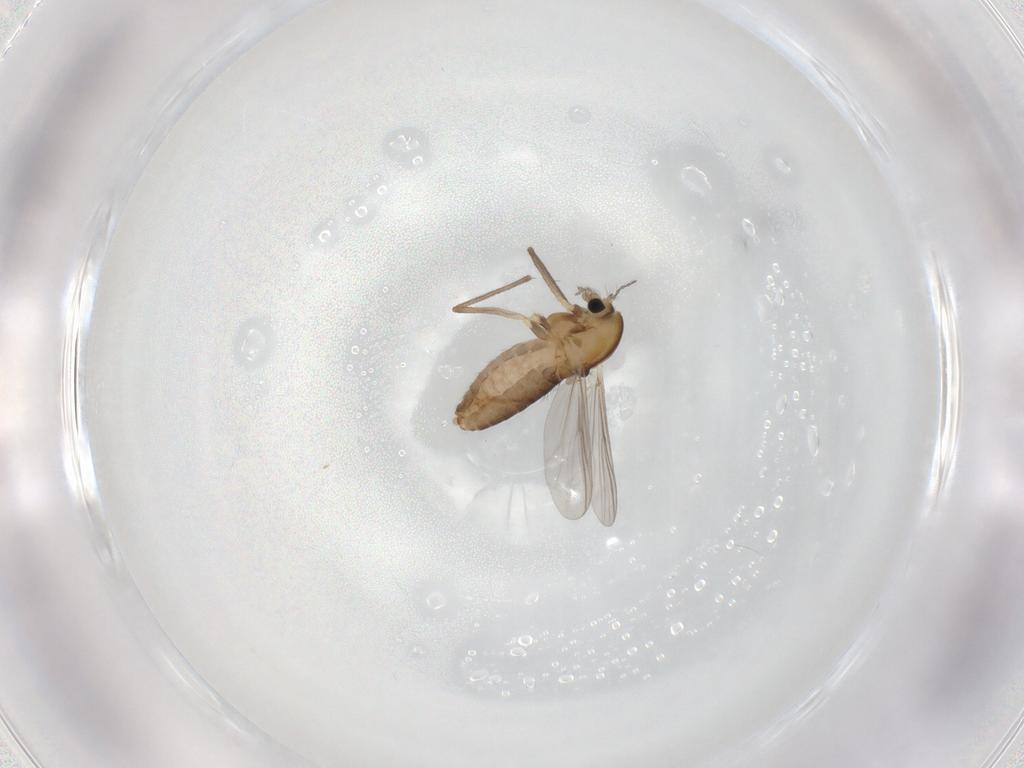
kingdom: Animalia
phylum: Arthropoda
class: Insecta
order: Diptera
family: Chironomidae
